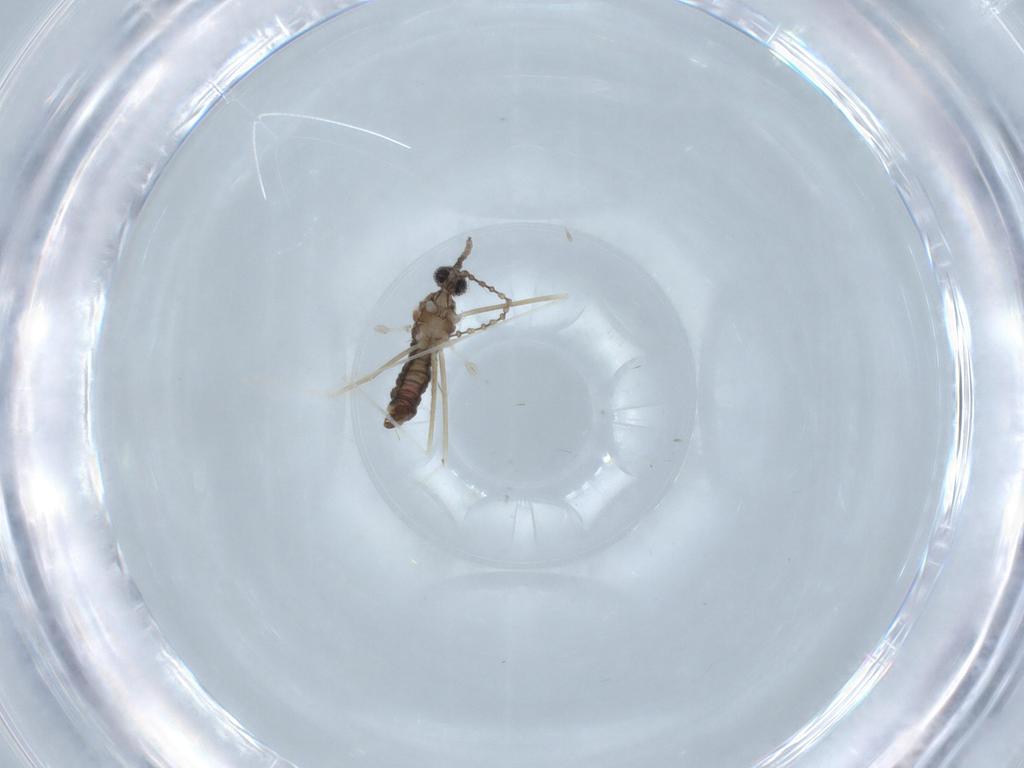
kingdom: Animalia
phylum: Arthropoda
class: Insecta
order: Diptera
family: Cecidomyiidae
